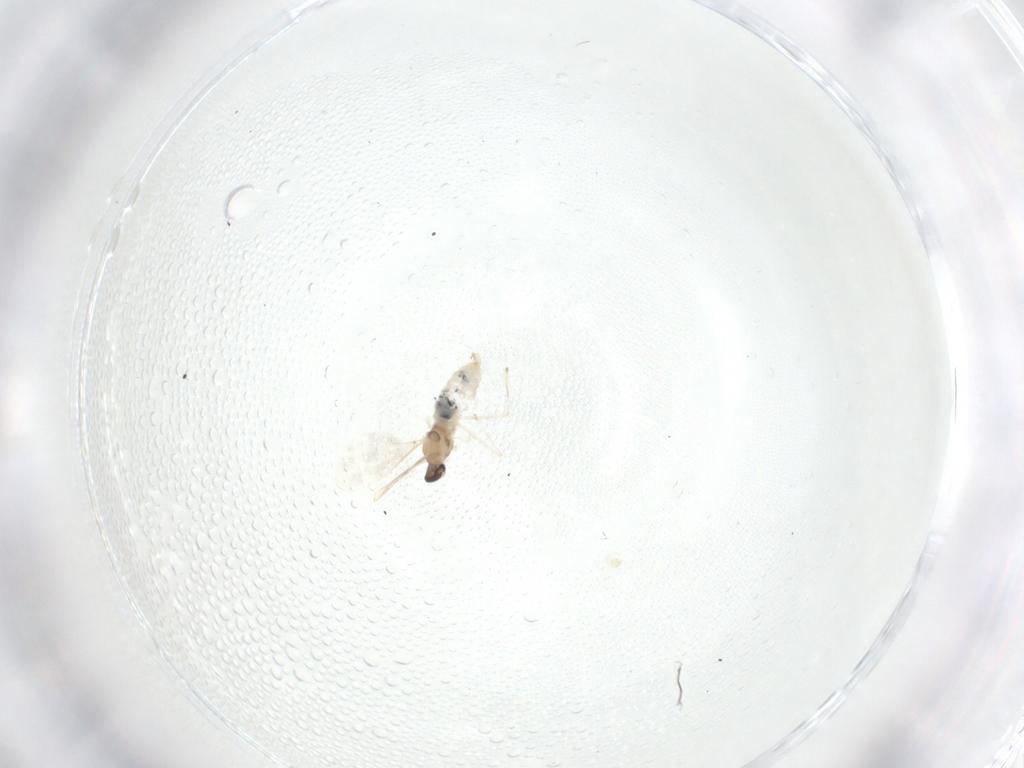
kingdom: Animalia
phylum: Arthropoda
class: Insecta
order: Diptera
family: Cecidomyiidae
